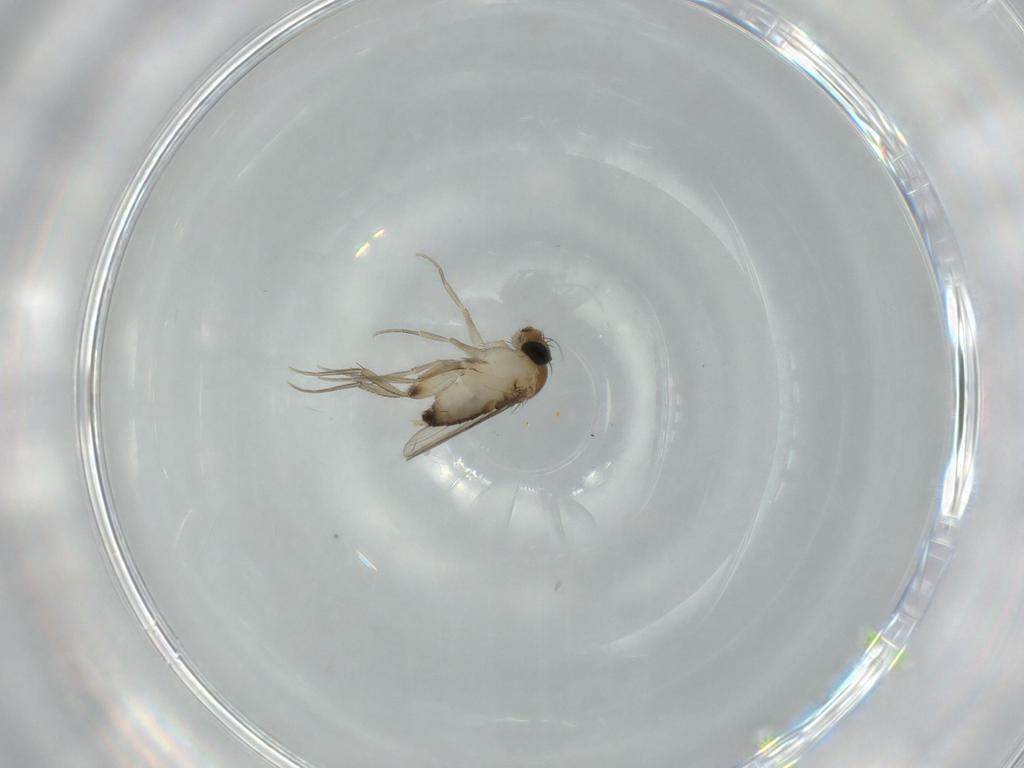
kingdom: Animalia
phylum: Arthropoda
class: Insecta
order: Diptera
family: Phoridae
